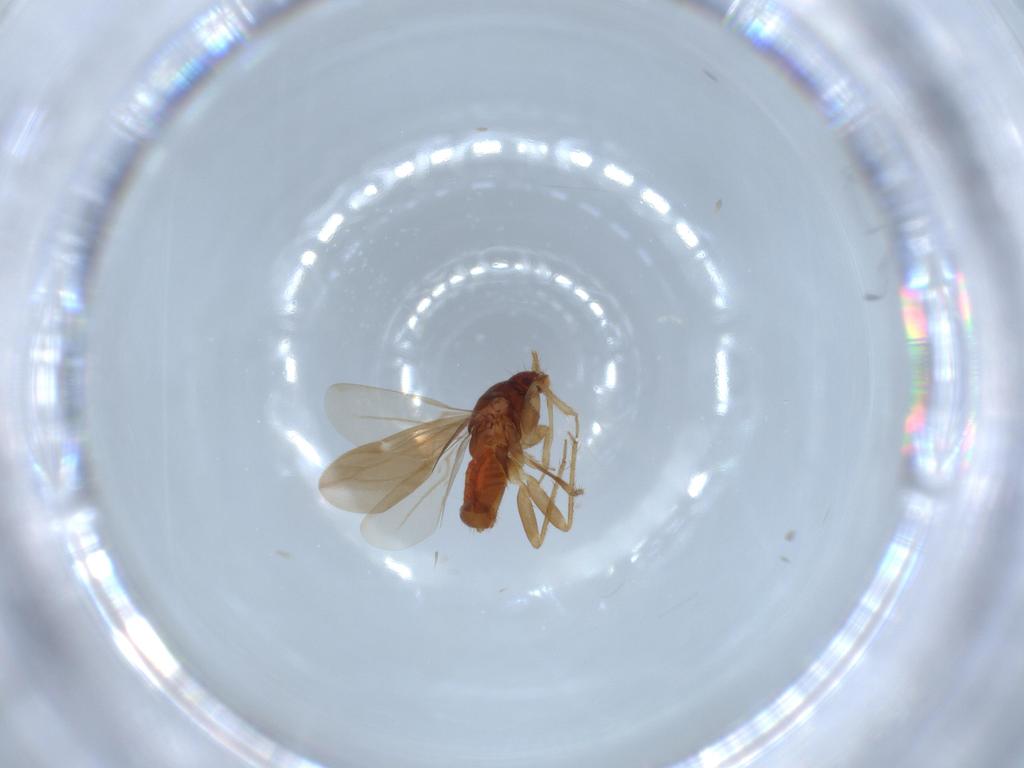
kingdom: Animalia
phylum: Arthropoda
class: Insecta
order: Hemiptera
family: Ceratocombidae
